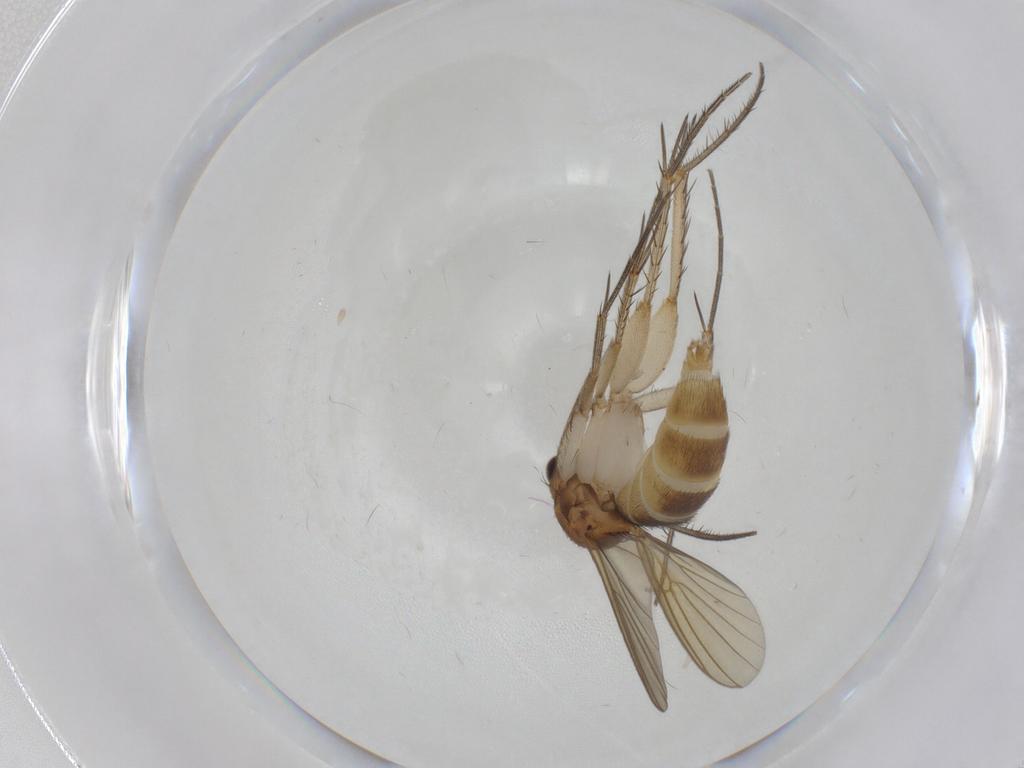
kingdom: Animalia
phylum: Arthropoda
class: Insecta
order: Diptera
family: Mycetophilidae
